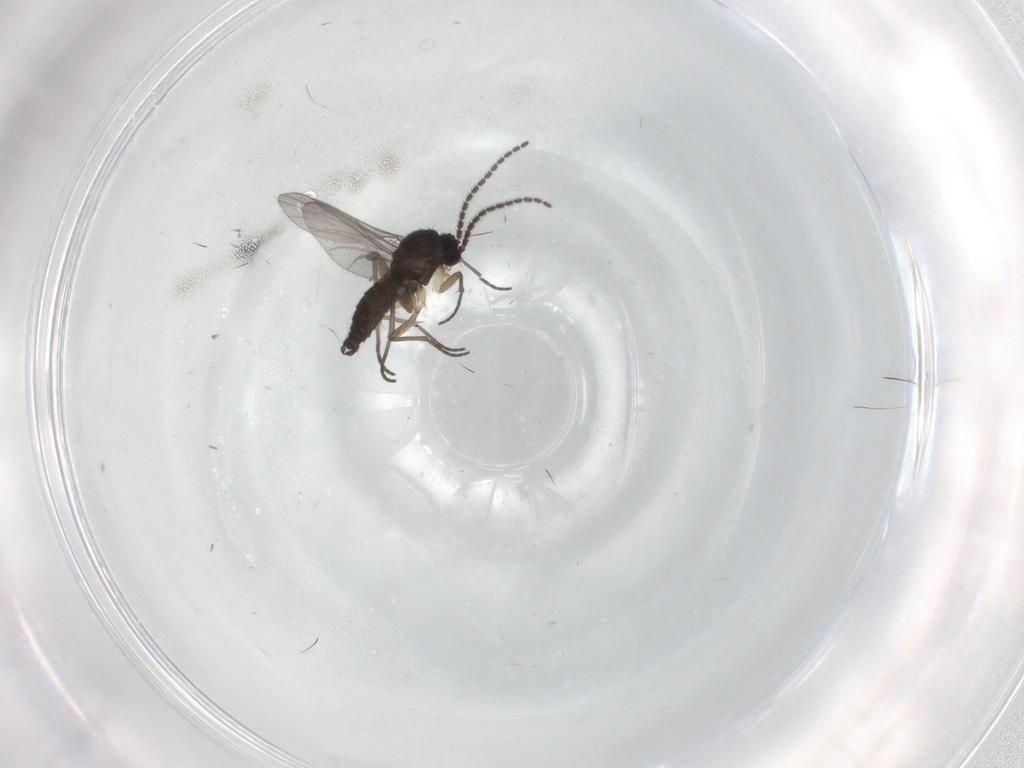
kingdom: Animalia
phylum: Arthropoda
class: Insecta
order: Diptera
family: Sciaridae
